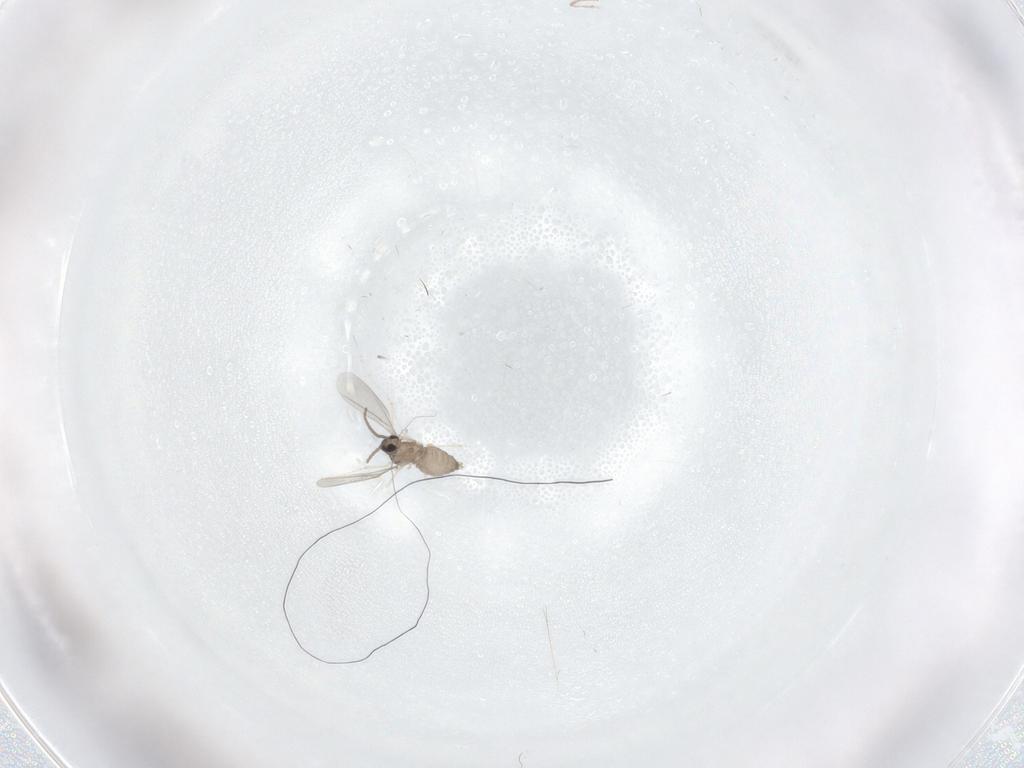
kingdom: Animalia
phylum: Arthropoda
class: Insecta
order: Diptera
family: Cecidomyiidae
